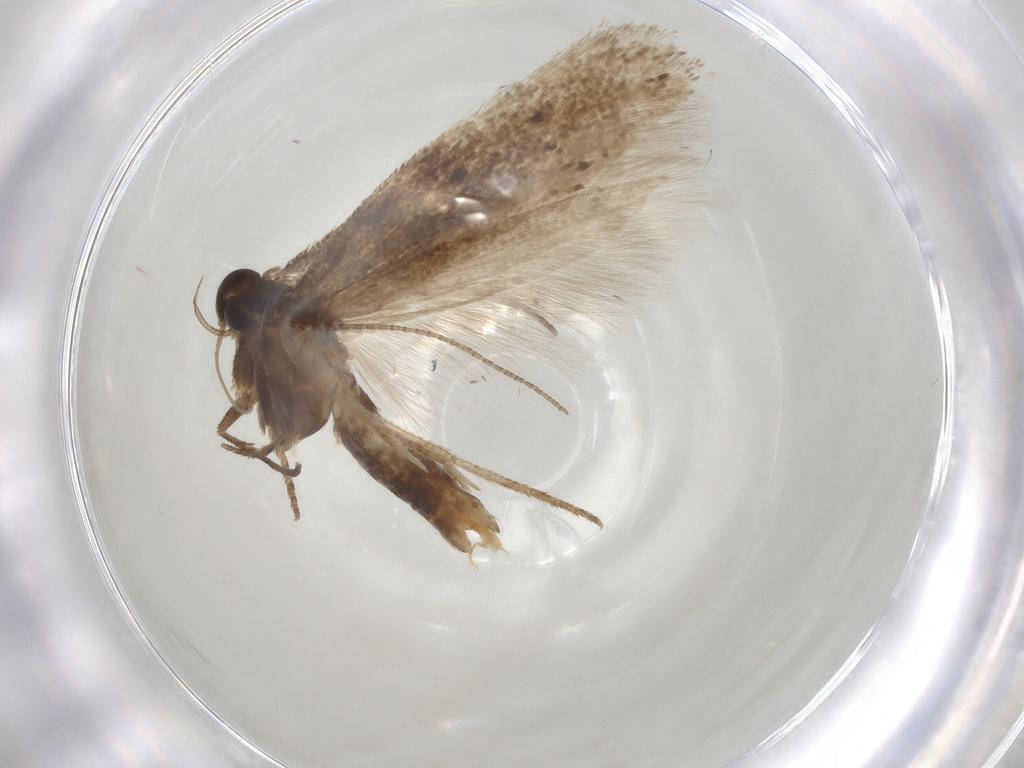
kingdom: Animalia
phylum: Arthropoda
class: Insecta
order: Lepidoptera
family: Gelechiidae
